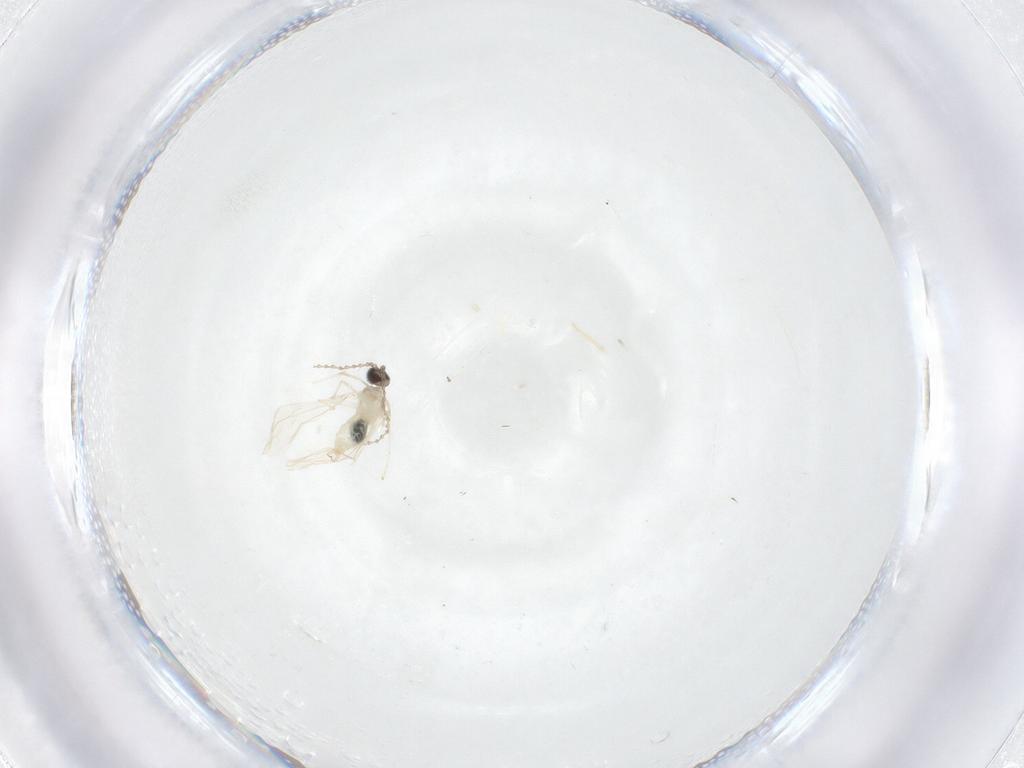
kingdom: Animalia
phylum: Arthropoda
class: Insecta
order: Diptera
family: Cecidomyiidae
